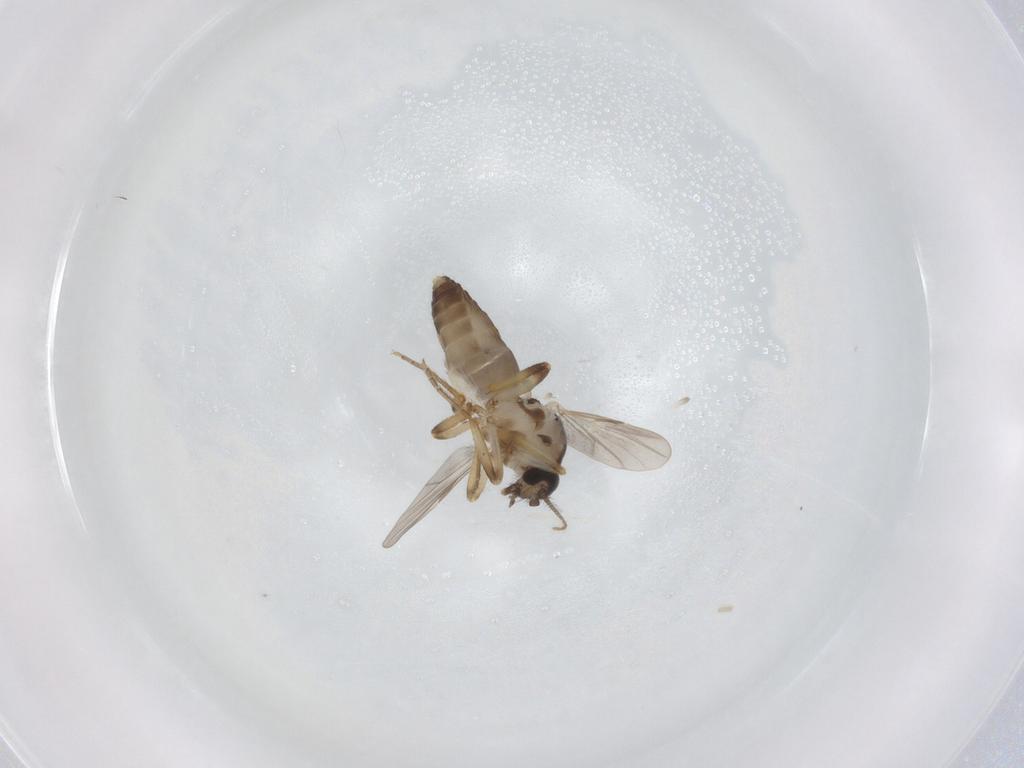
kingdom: Animalia
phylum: Arthropoda
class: Insecta
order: Diptera
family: Ceratopogonidae
